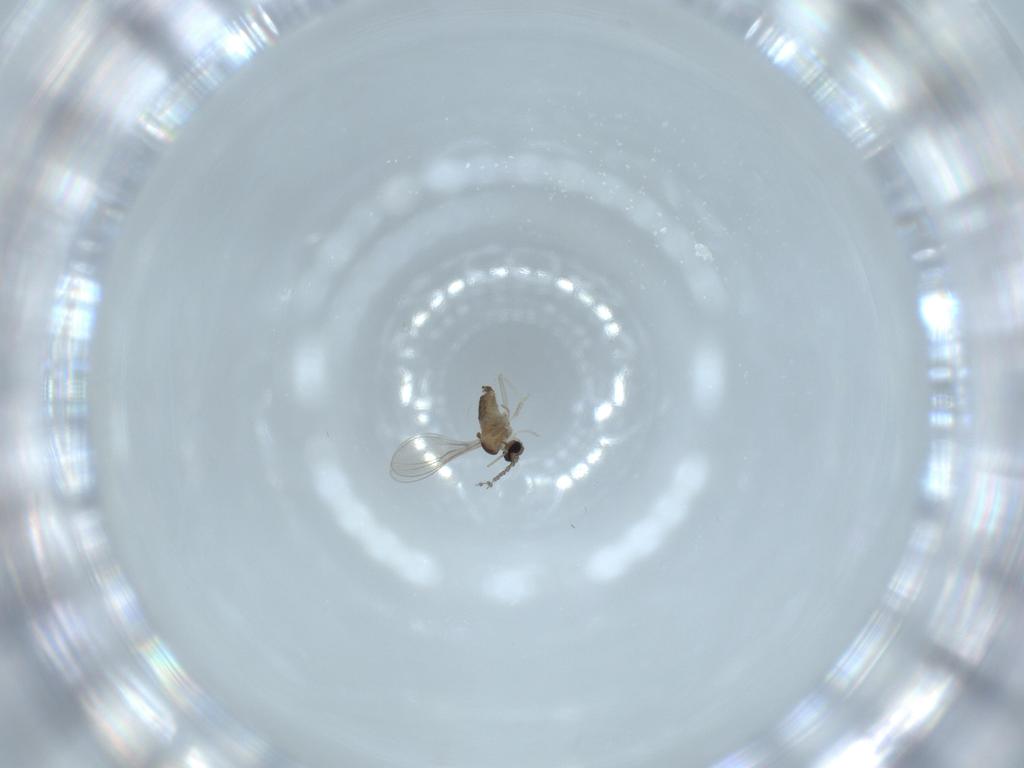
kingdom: Animalia
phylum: Arthropoda
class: Insecta
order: Diptera
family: Cecidomyiidae
